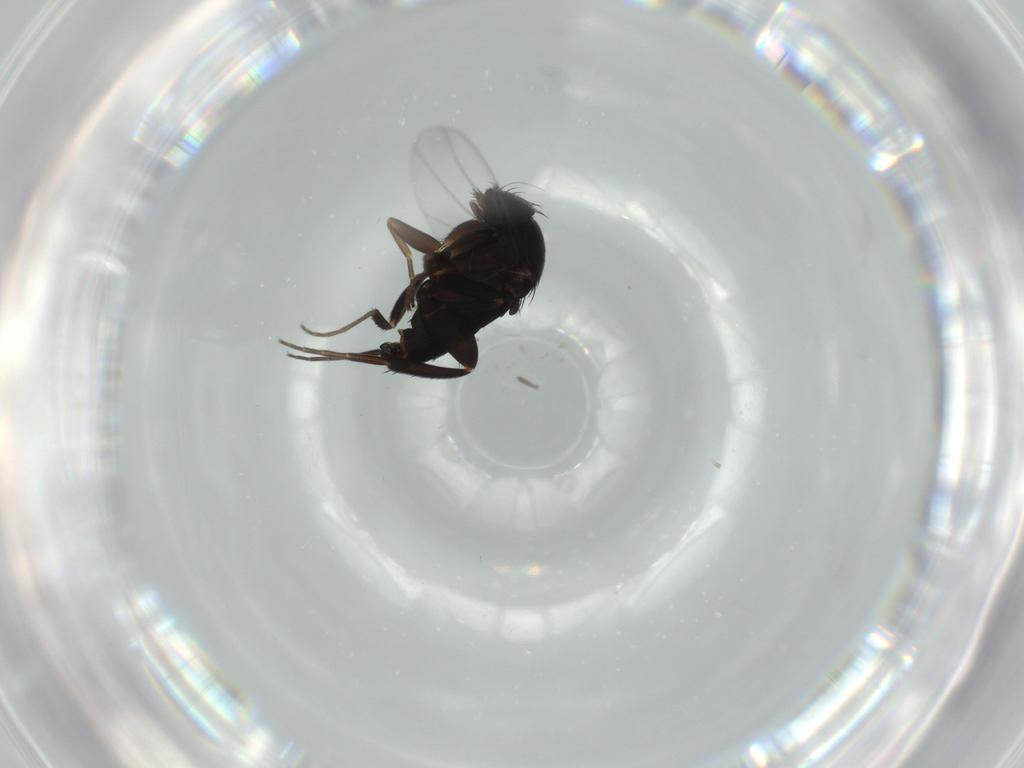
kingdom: Animalia
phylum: Arthropoda
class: Insecta
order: Diptera
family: Phoridae
